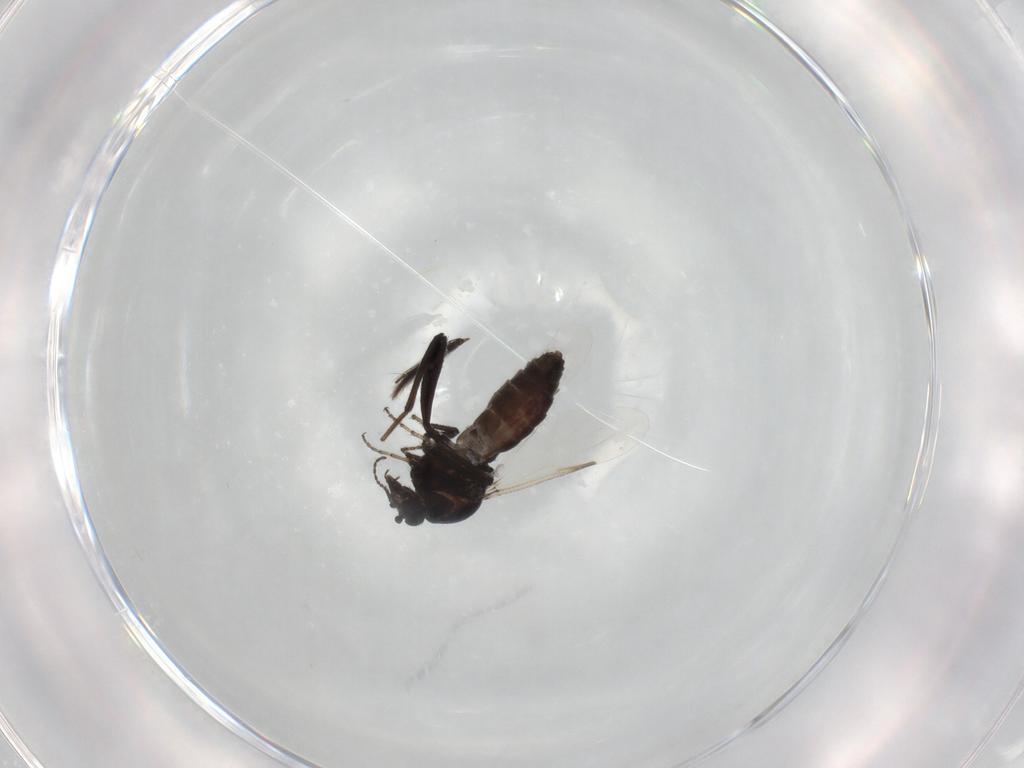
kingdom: Animalia
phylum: Arthropoda
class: Insecta
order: Diptera
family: Ceratopogonidae
